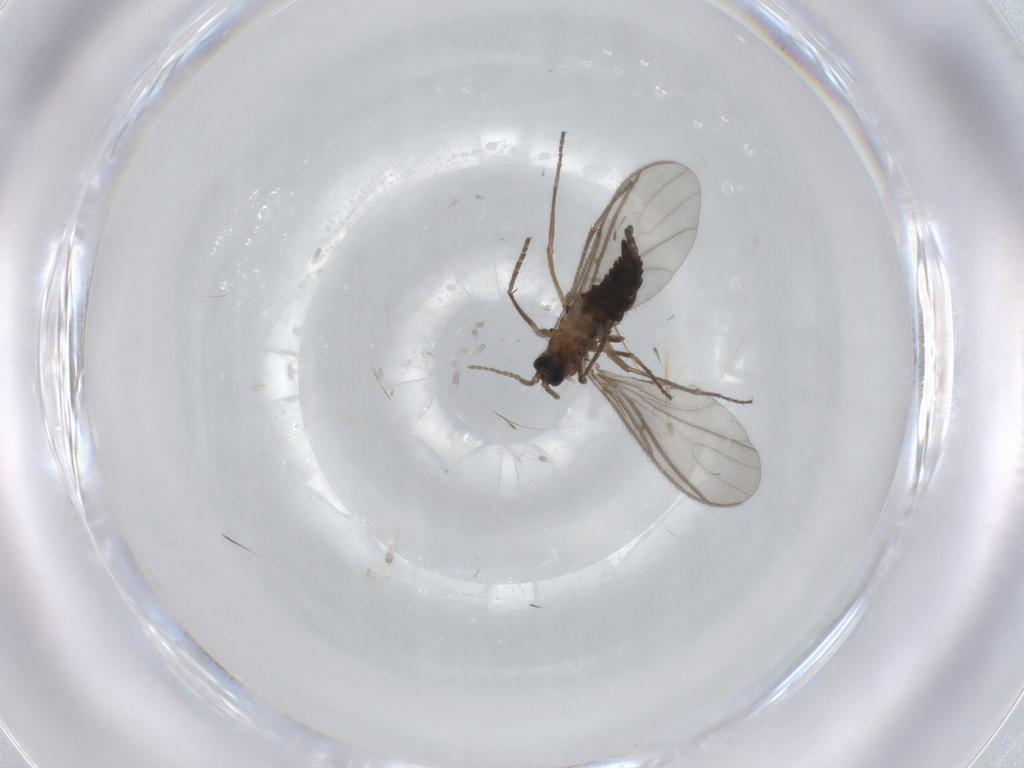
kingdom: Animalia
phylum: Arthropoda
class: Insecta
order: Diptera
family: Sciaridae
